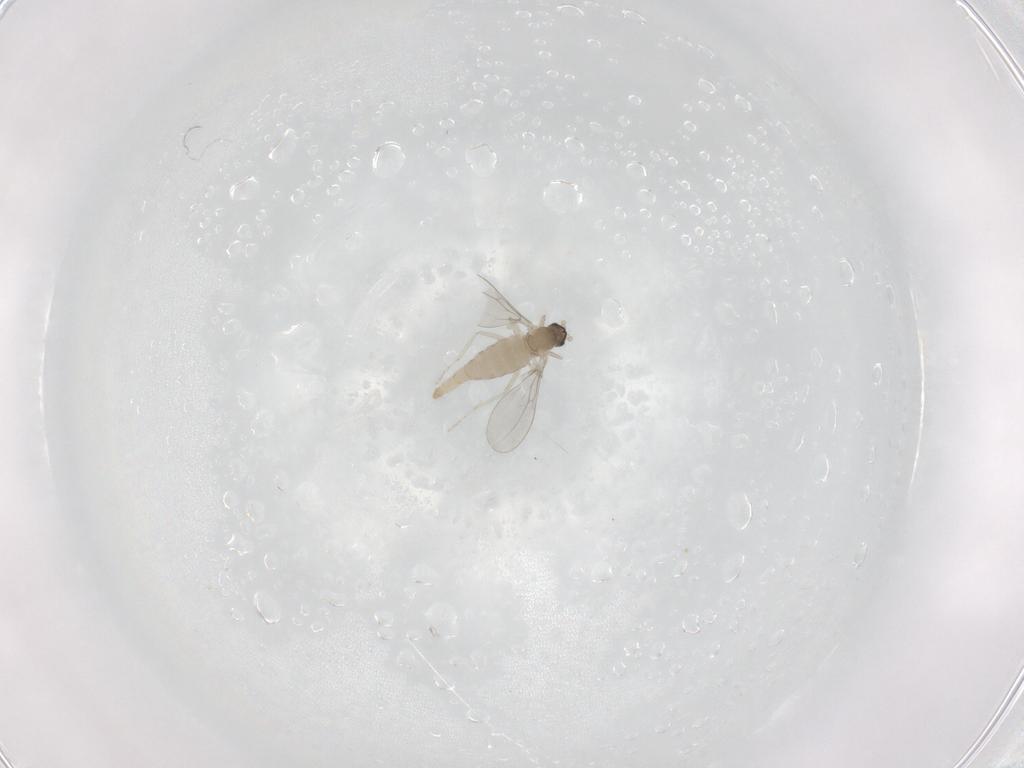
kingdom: Animalia
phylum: Arthropoda
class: Insecta
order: Diptera
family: Cecidomyiidae
